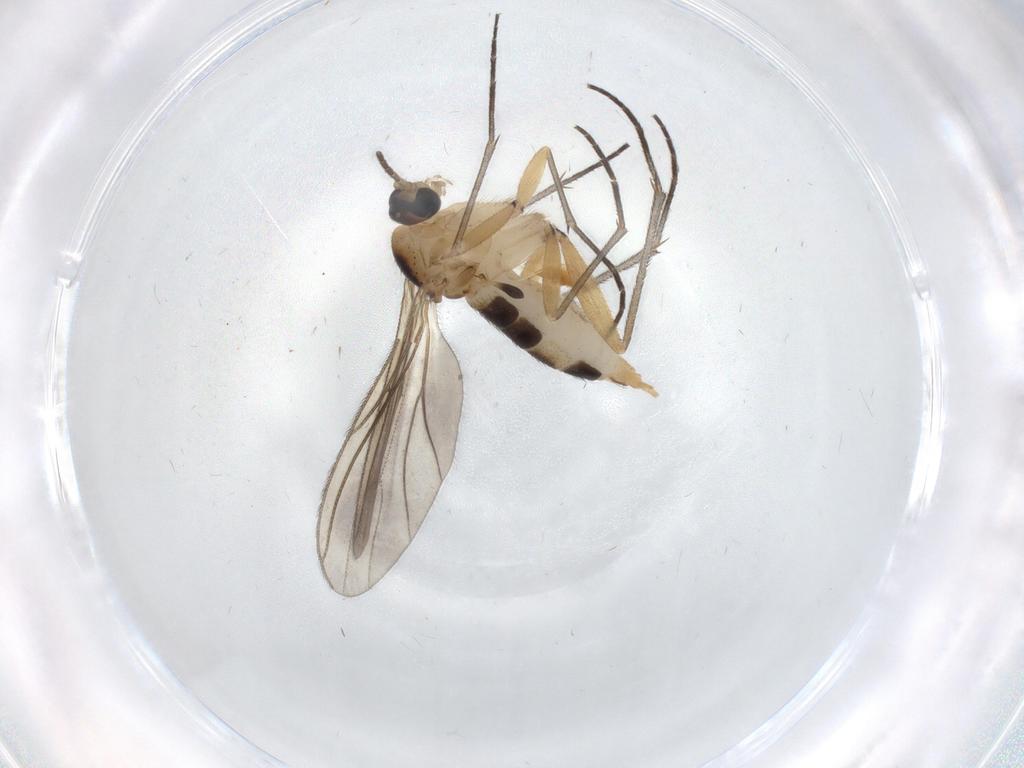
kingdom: Animalia
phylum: Arthropoda
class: Insecta
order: Diptera
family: Sciaridae
